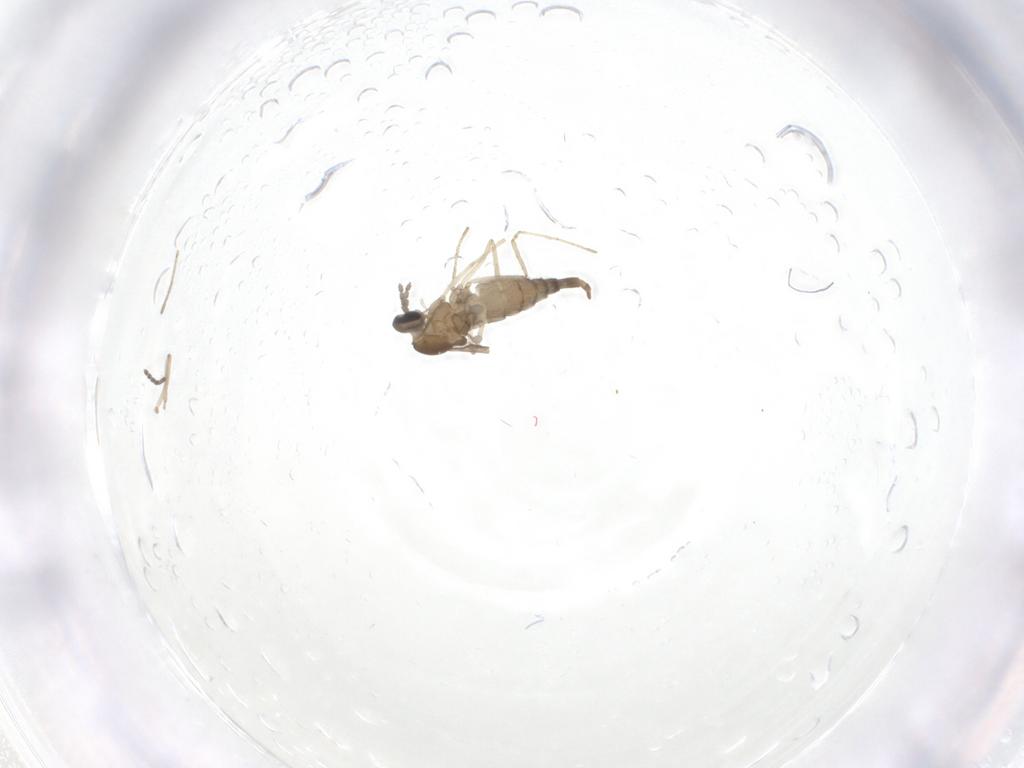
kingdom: Animalia
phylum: Arthropoda
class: Insecta
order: Diptera
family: Cecidomyiidae
